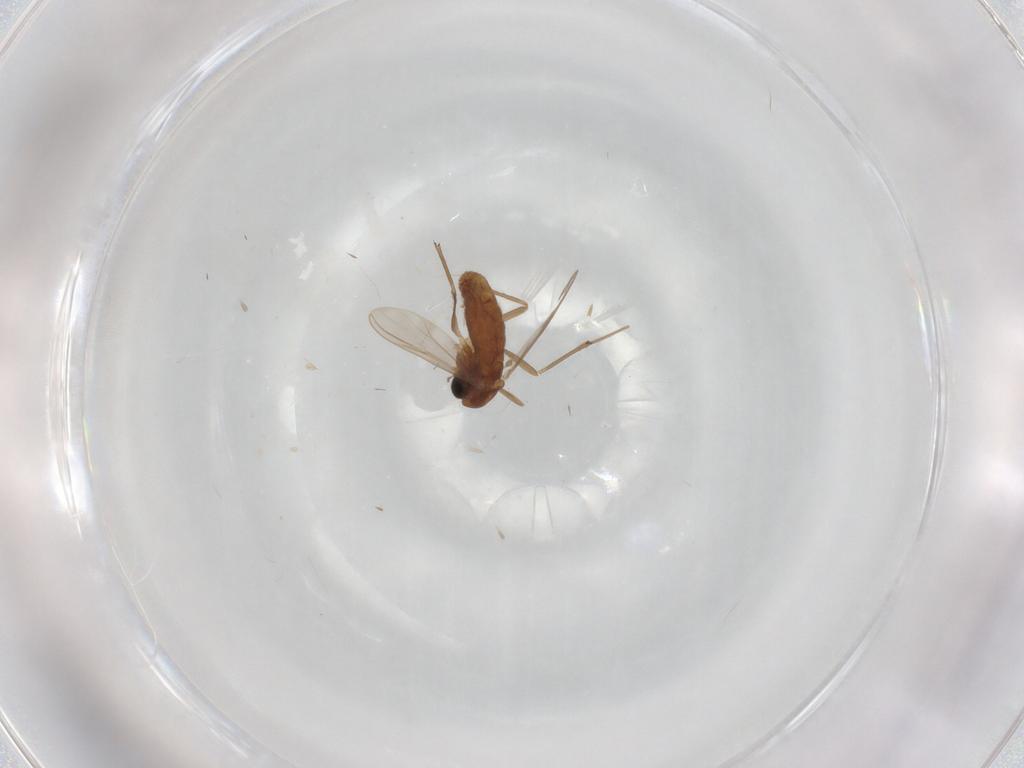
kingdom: Animalia
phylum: Arthropoda
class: Insecta
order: Diptera
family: Chironomidae
